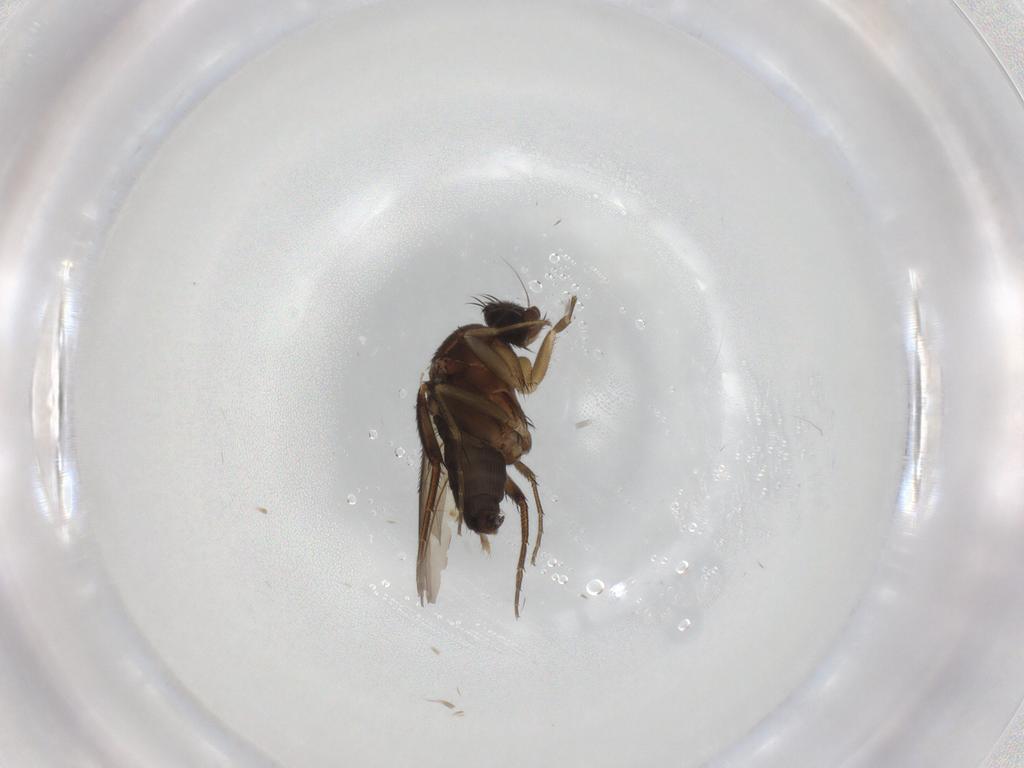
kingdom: Animalia
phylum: Arthropoda
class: Insecta
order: Diptera
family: Phoridae
